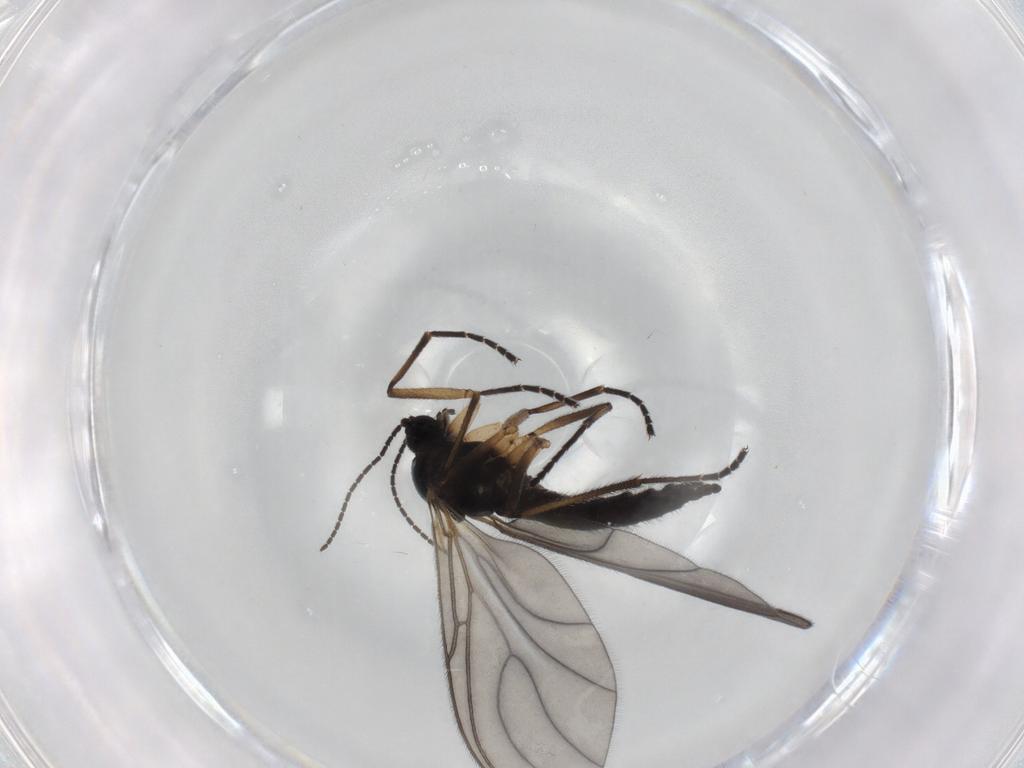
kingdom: Animalia
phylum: Arthropoda
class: Insecta
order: Diptera
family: Sciaridae
